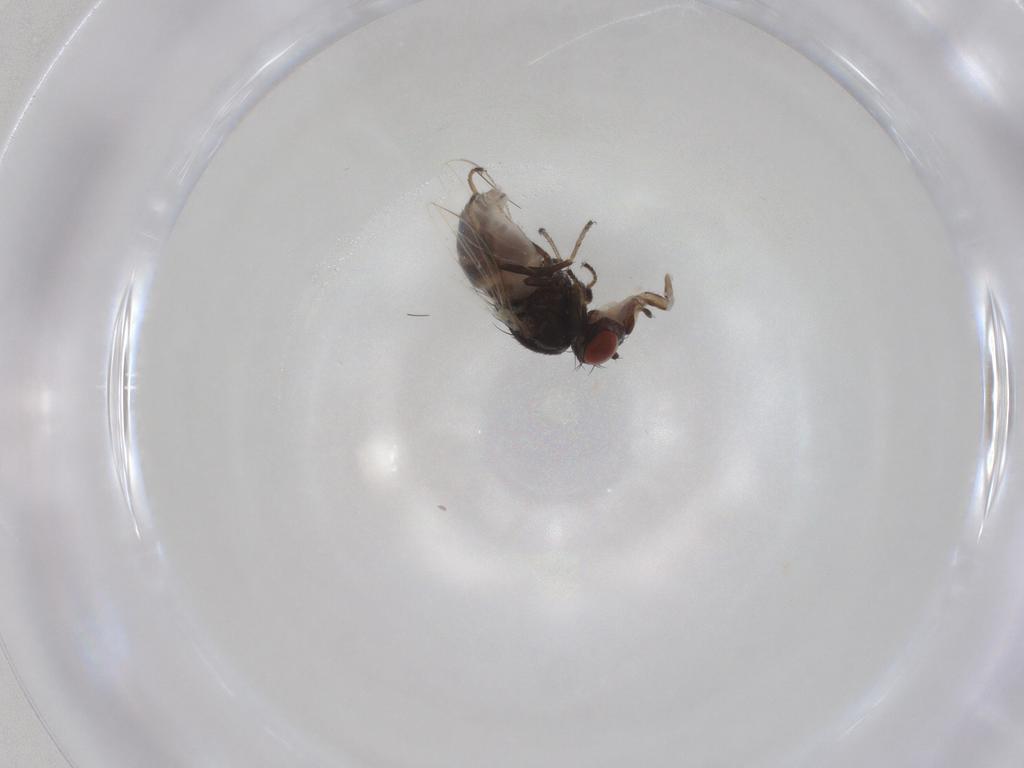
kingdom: Animalia
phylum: Arthropoda
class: Insecta
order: Diptera
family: Ephydridae
